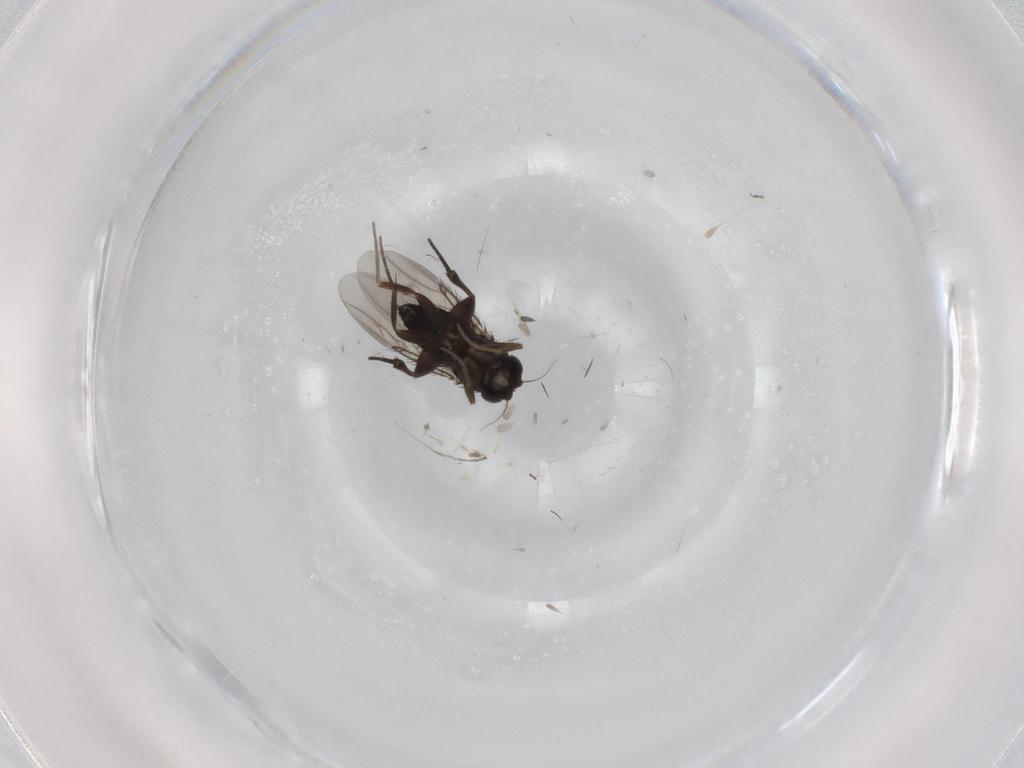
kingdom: Animalia
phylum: Arthropoda
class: Insecta
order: Diptera
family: Phoridae
